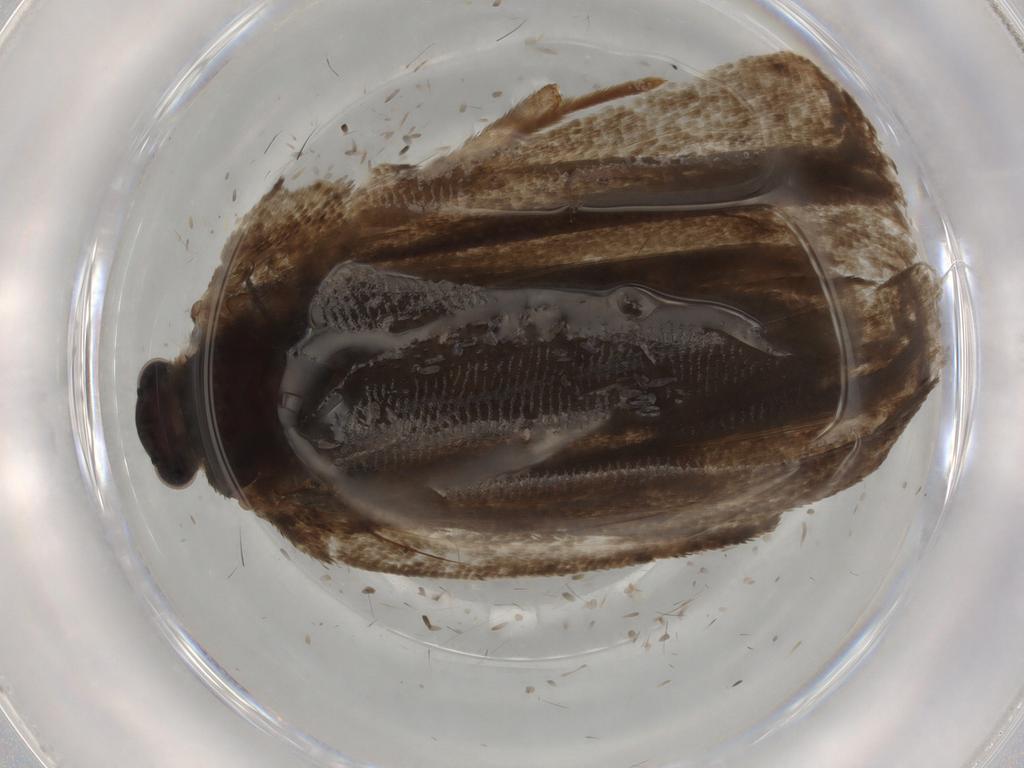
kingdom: Animalia
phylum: Arthropoda
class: Insecta
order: Lepidoptera
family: Tortricidae
